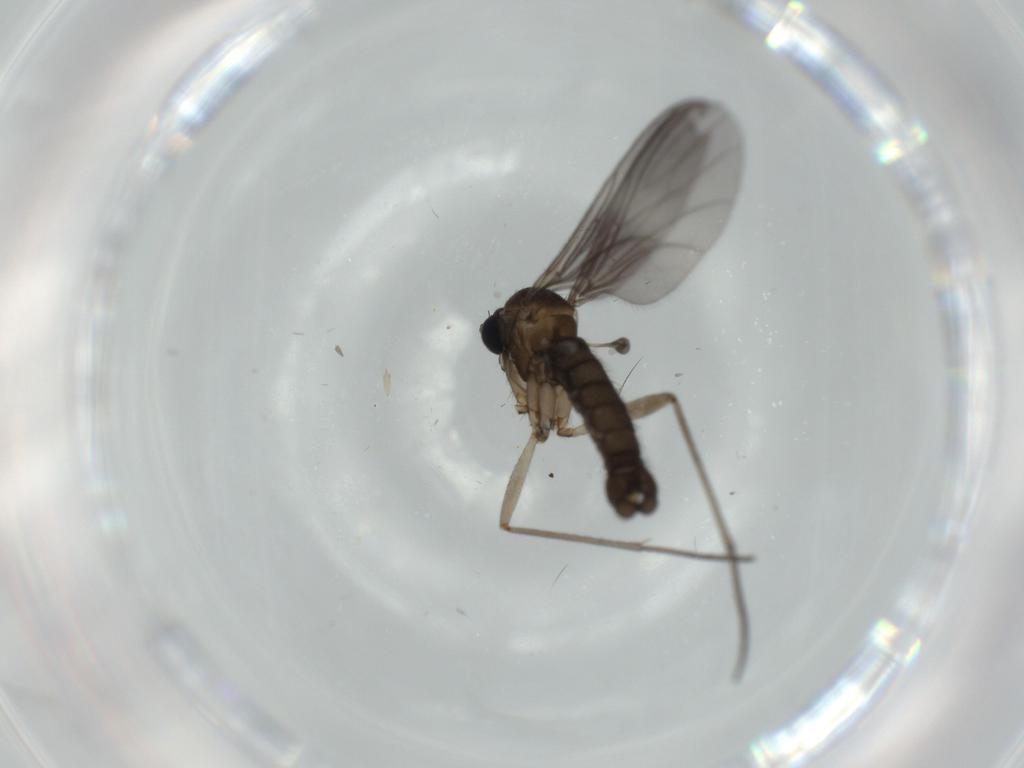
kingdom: Animalia
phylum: Arthropoda
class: Insecta
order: Diptera
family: Sciaridae
